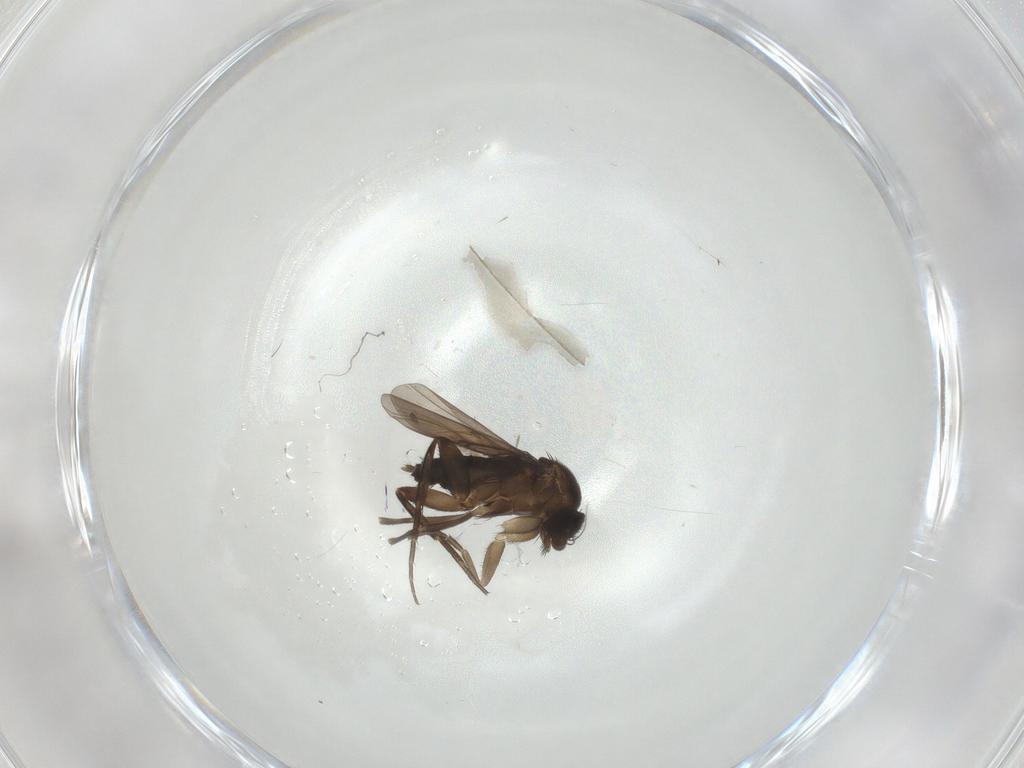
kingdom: Animalia
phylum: Arthropoda
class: Insecta
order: Diptera
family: Phoridae
